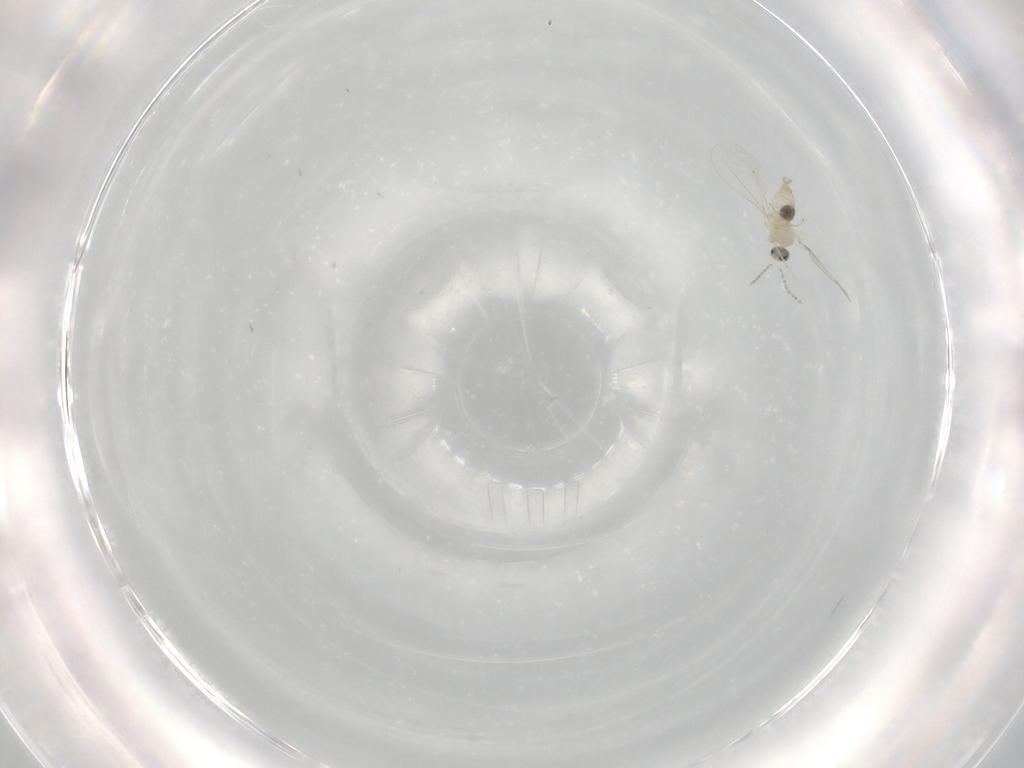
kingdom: Animalia
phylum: Arthropoda
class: Insecta
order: Diptera
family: Cecidomyiidae
